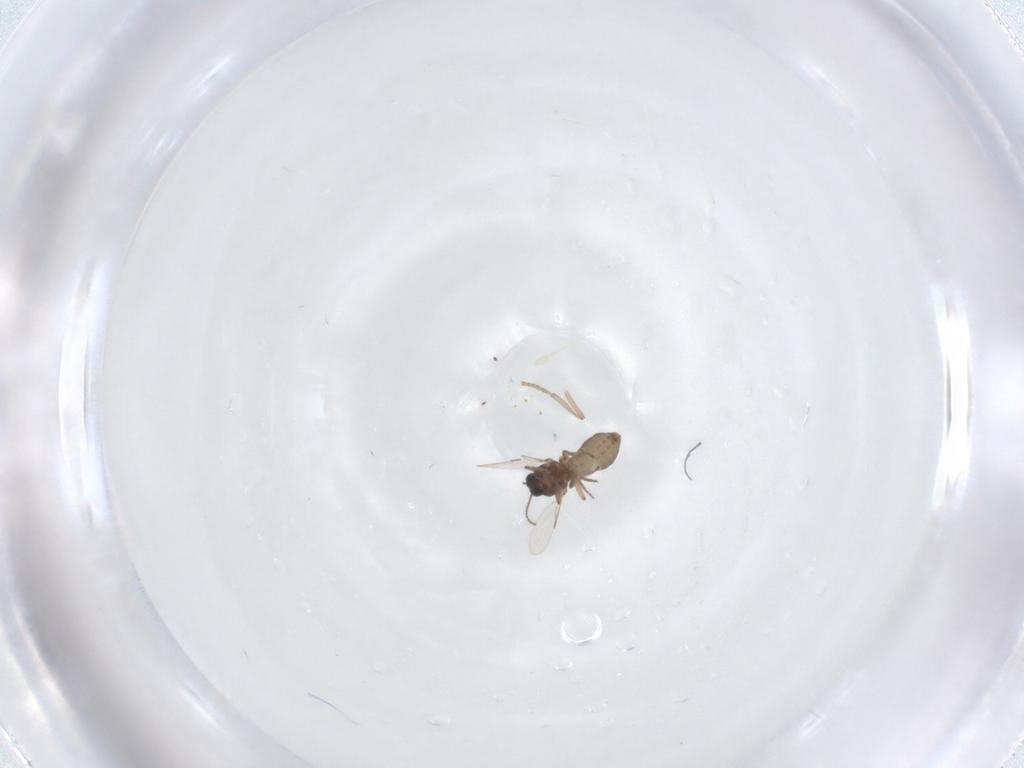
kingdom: Animalia
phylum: Arthropoda
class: Insecta
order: Diptera
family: Ceratopogonidae
